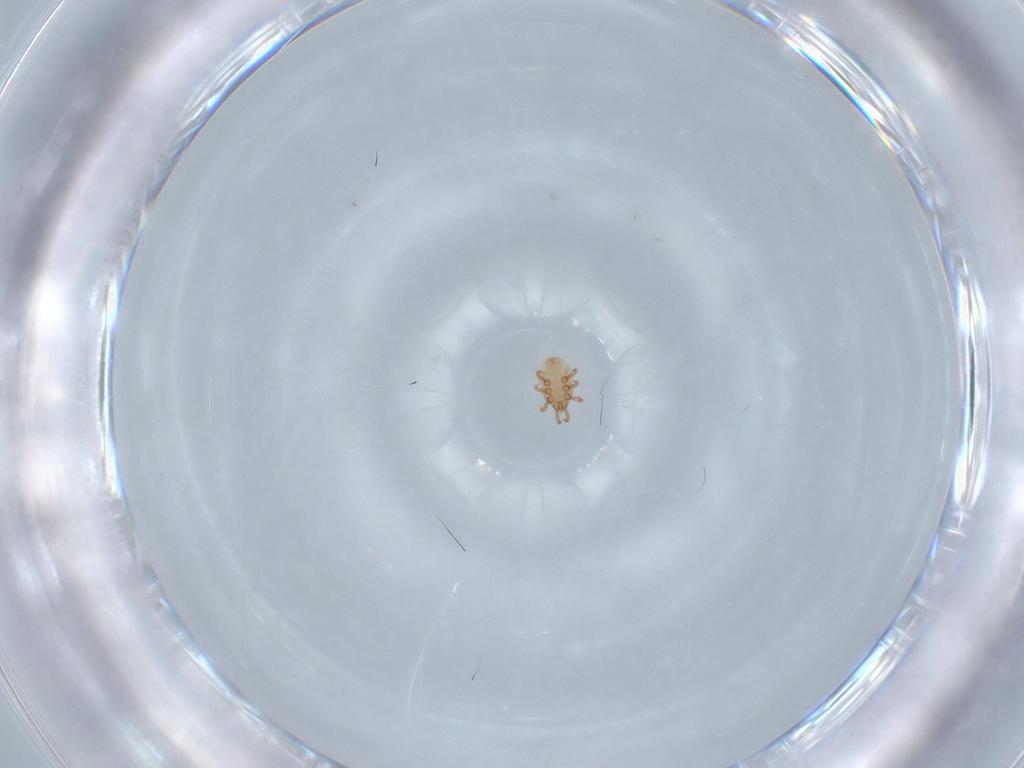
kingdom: Animalia
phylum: Arthropoda
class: Arachnida
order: Mesostigmata
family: Dinychidae
